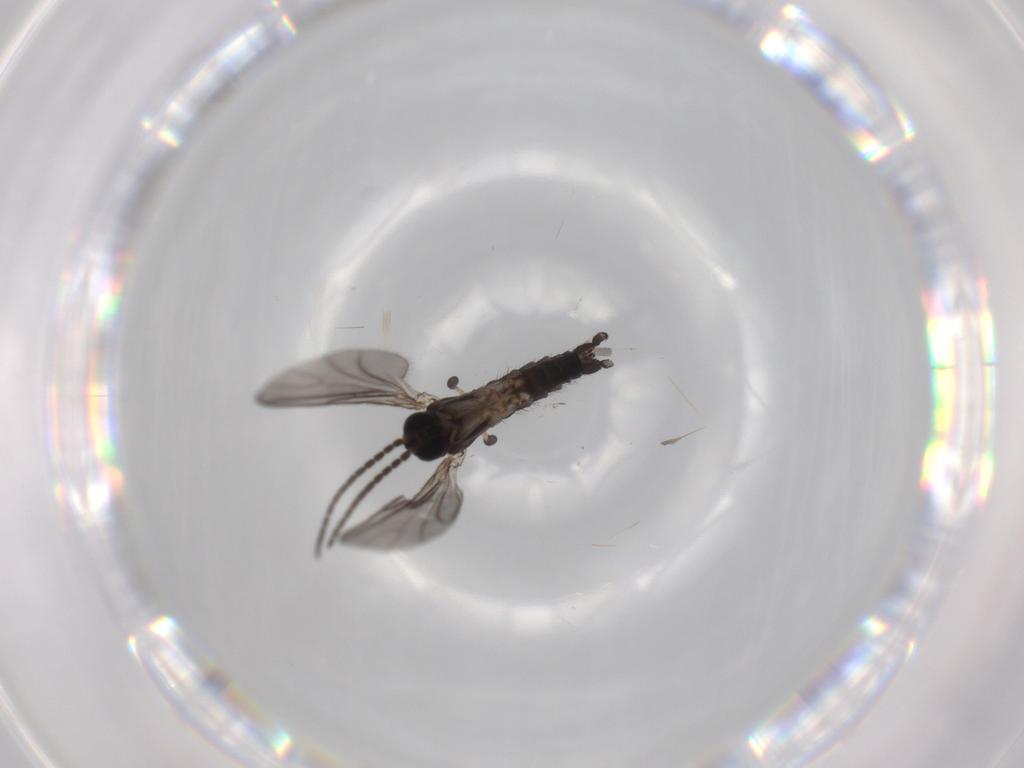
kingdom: Animalia
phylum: Arthropoda
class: Insecta
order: Diptera
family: Sciaridae
